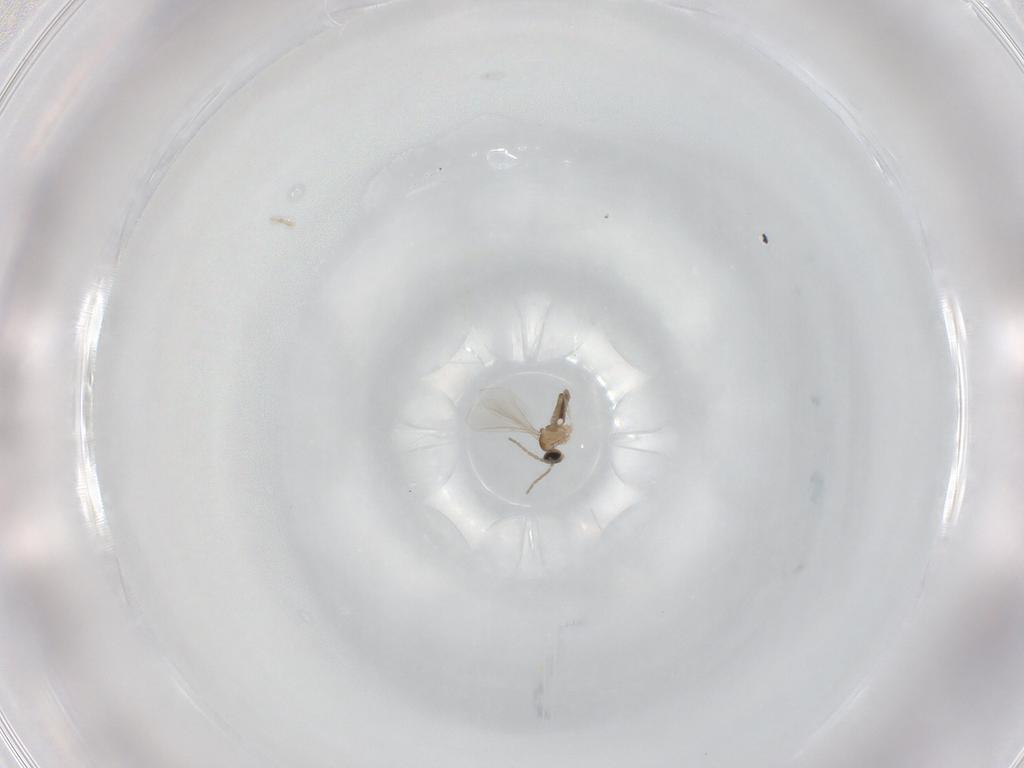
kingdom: Animalia
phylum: Arthropoda
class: Insecta
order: Diptera
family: Cecidomyiidae
